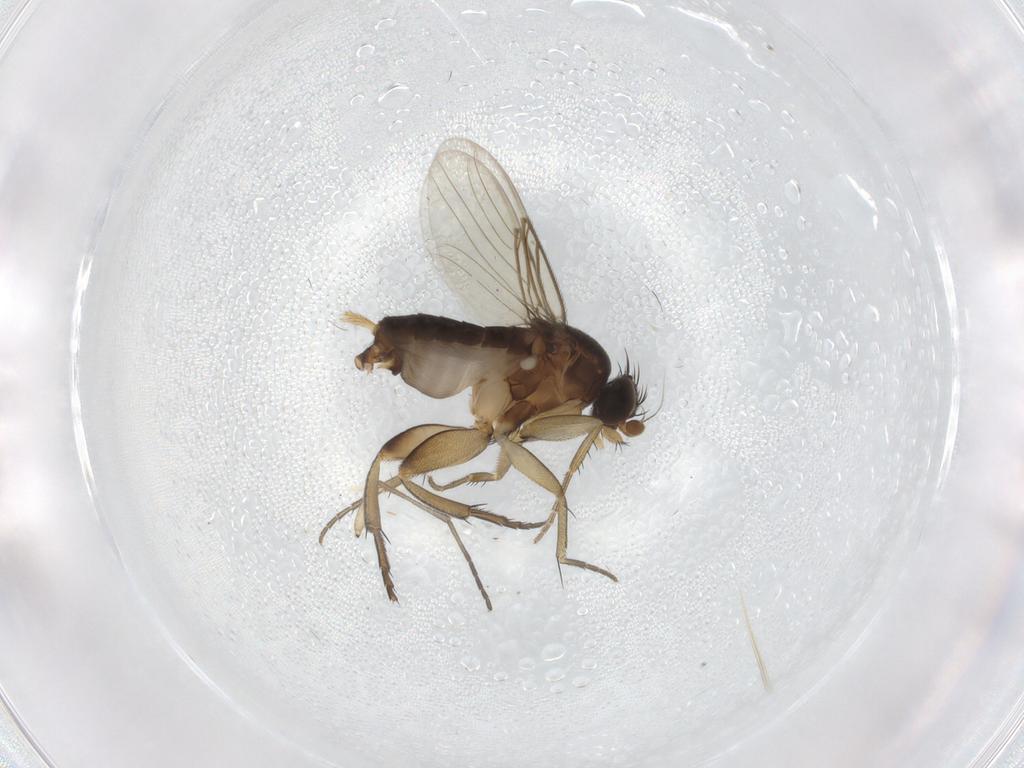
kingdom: Animalia
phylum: Arthropoda
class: Insecta
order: Diptera
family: Phoridae
